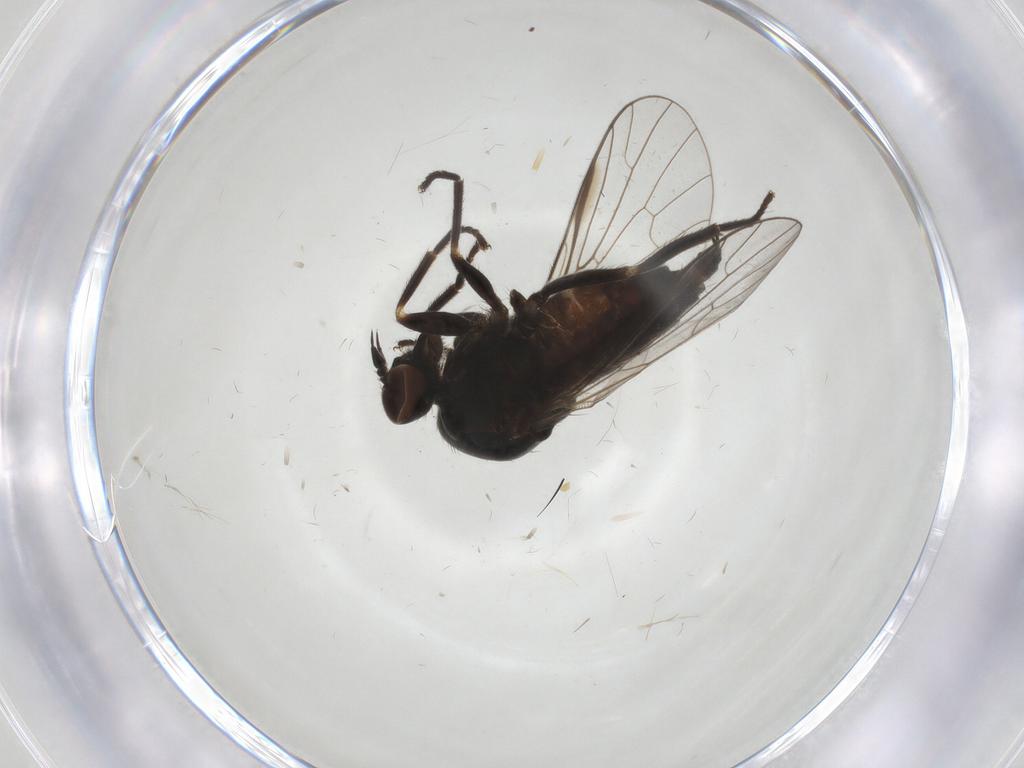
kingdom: Animalia
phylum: Arthropoda
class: Insecta
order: Diptera
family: Empididae
